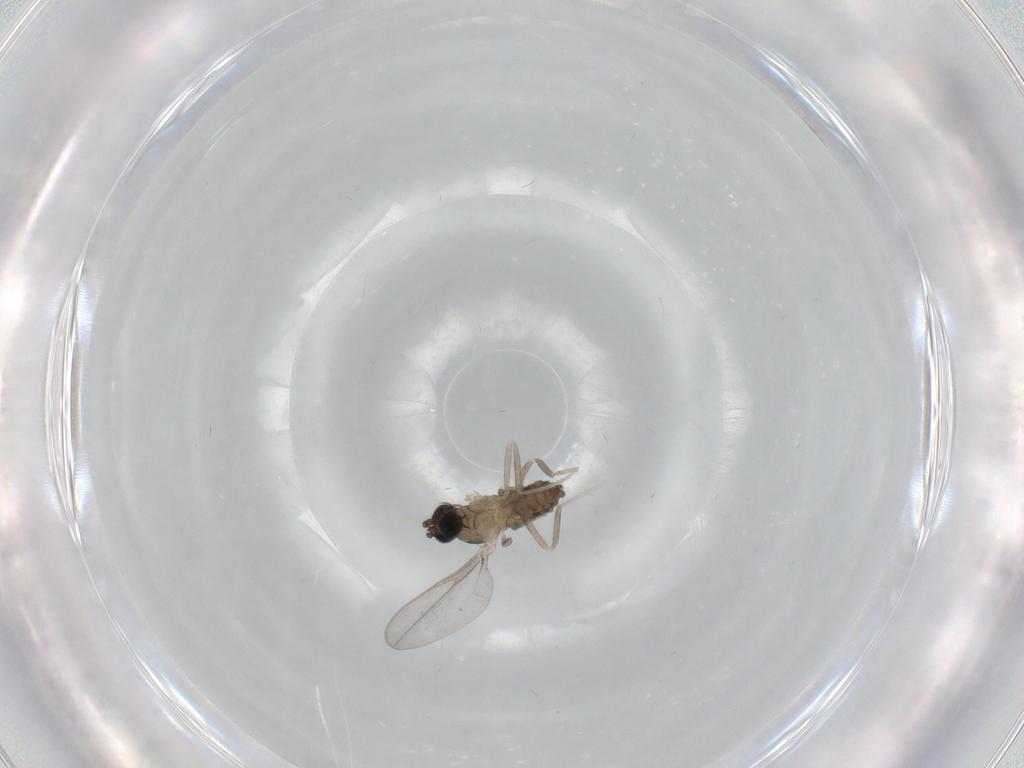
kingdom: Animalia
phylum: Arthropoda
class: Insecta
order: Diptera
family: Cecidomyiidae
